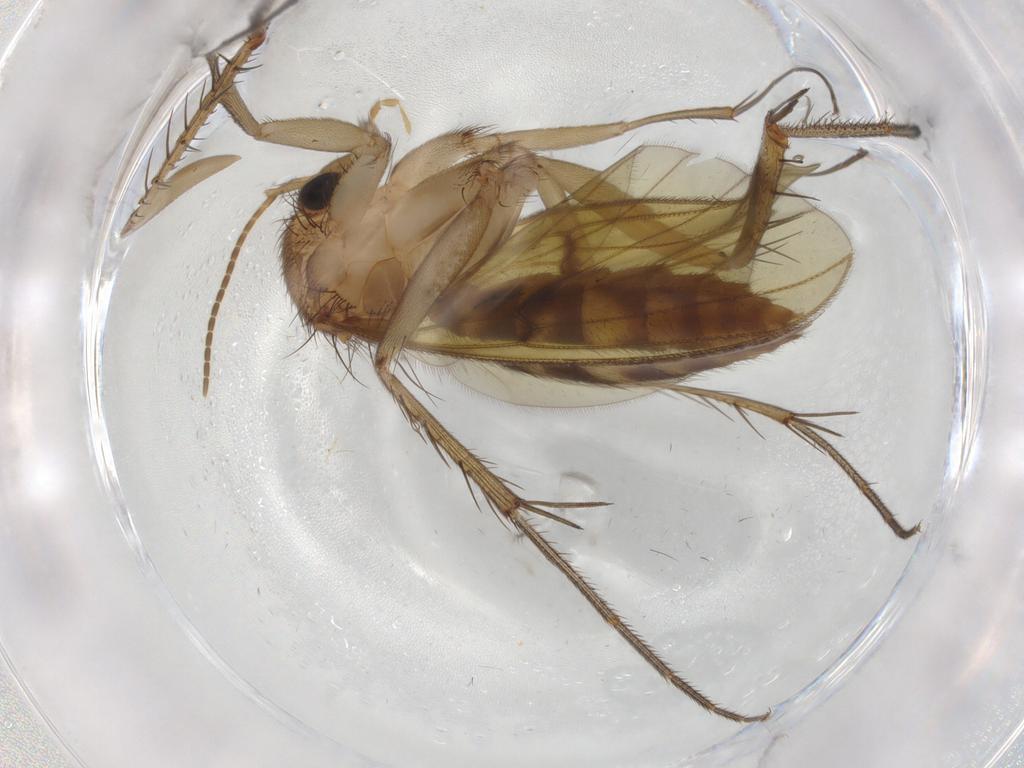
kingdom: Animalia
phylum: Arthropoda
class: Insecta
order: Diptera
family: Mycetophilidae
